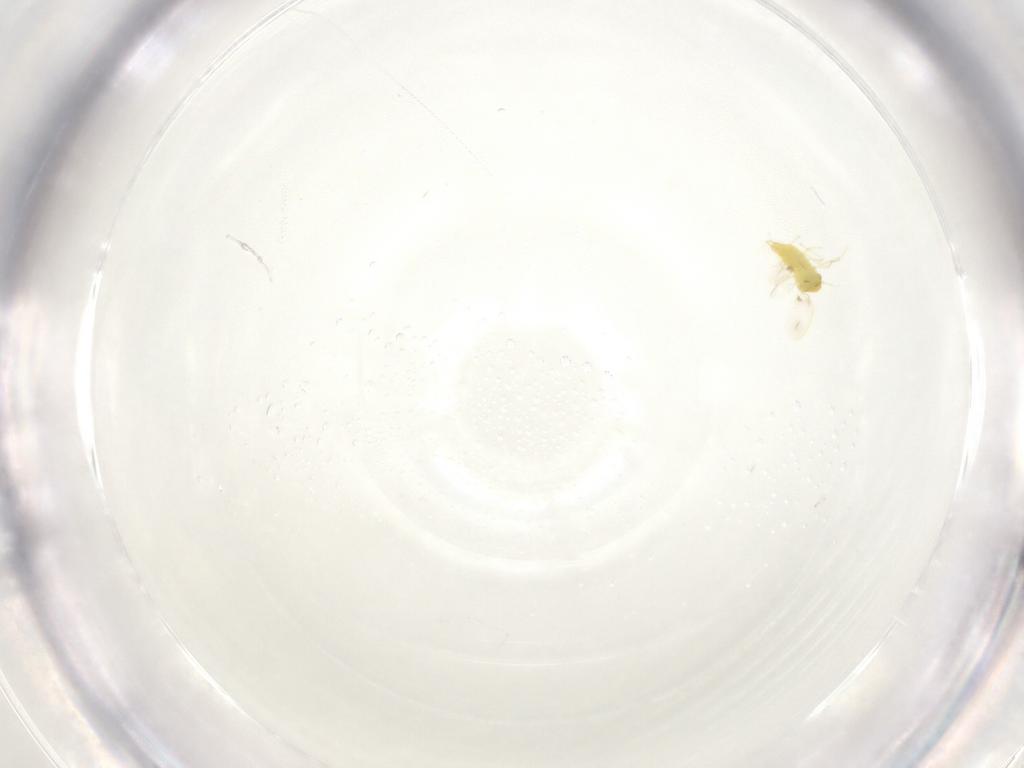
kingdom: Animalia
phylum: Arthropoda
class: Insecta
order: Hemiptera
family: Aleyrodidae
